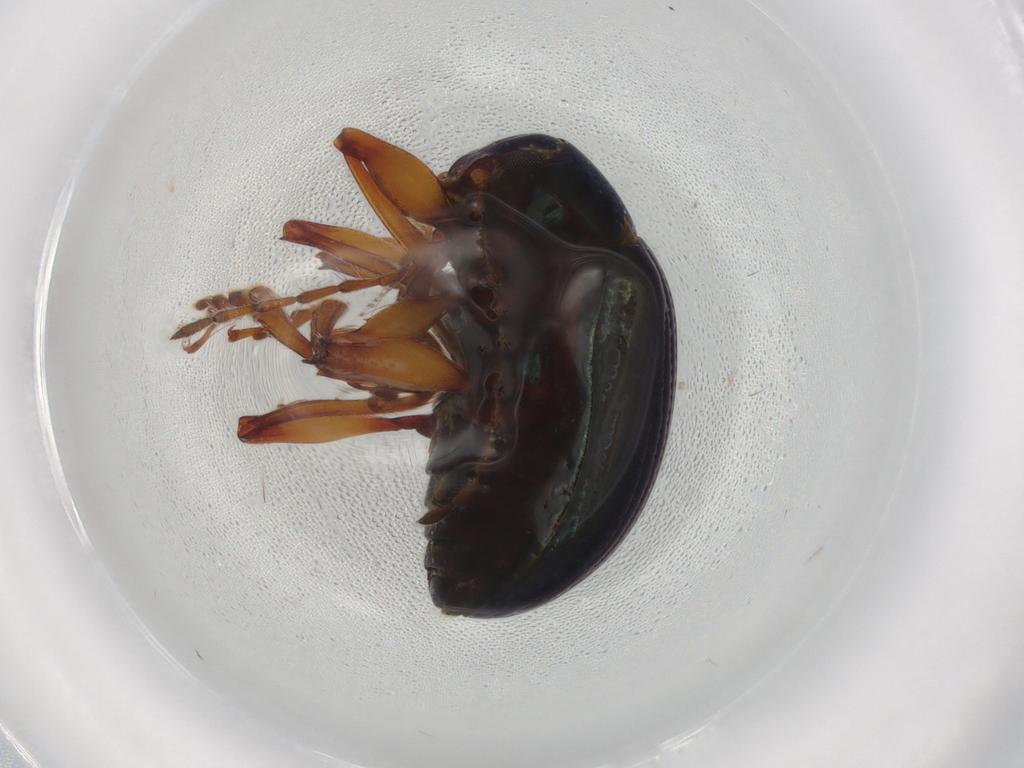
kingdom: Animalia
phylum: Arthropoda
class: Insecta
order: Coleoptera
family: Chrysomelidae
